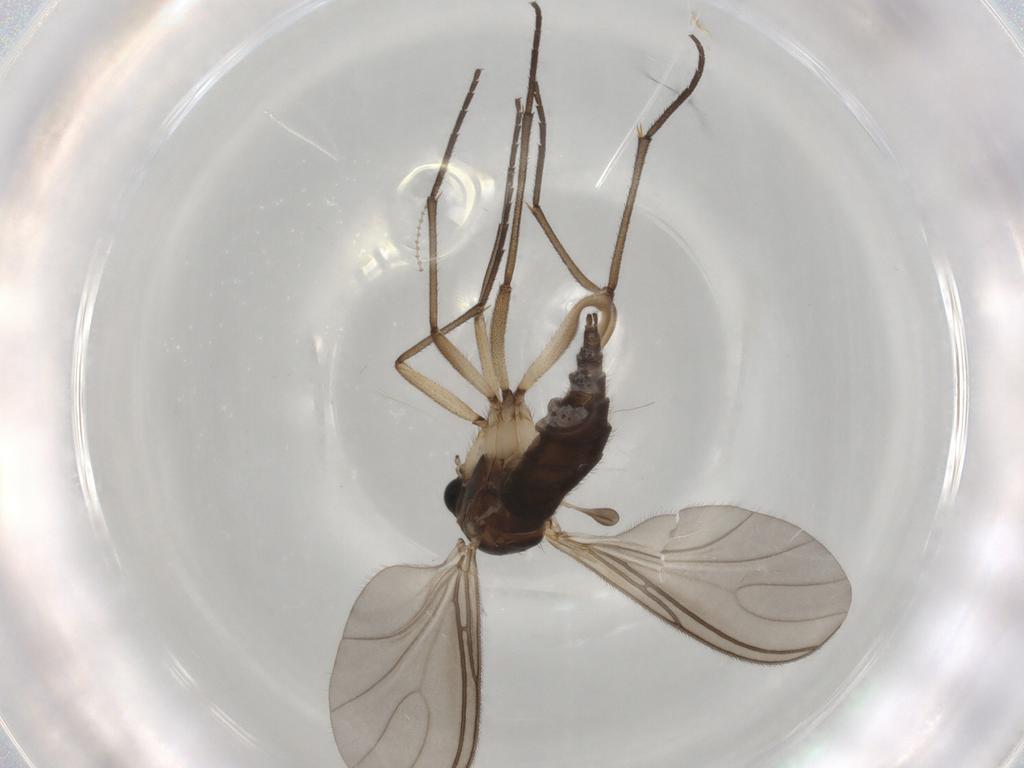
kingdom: Animalia
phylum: Arthropoda
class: Insecta
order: Diptera
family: Sciaridae
